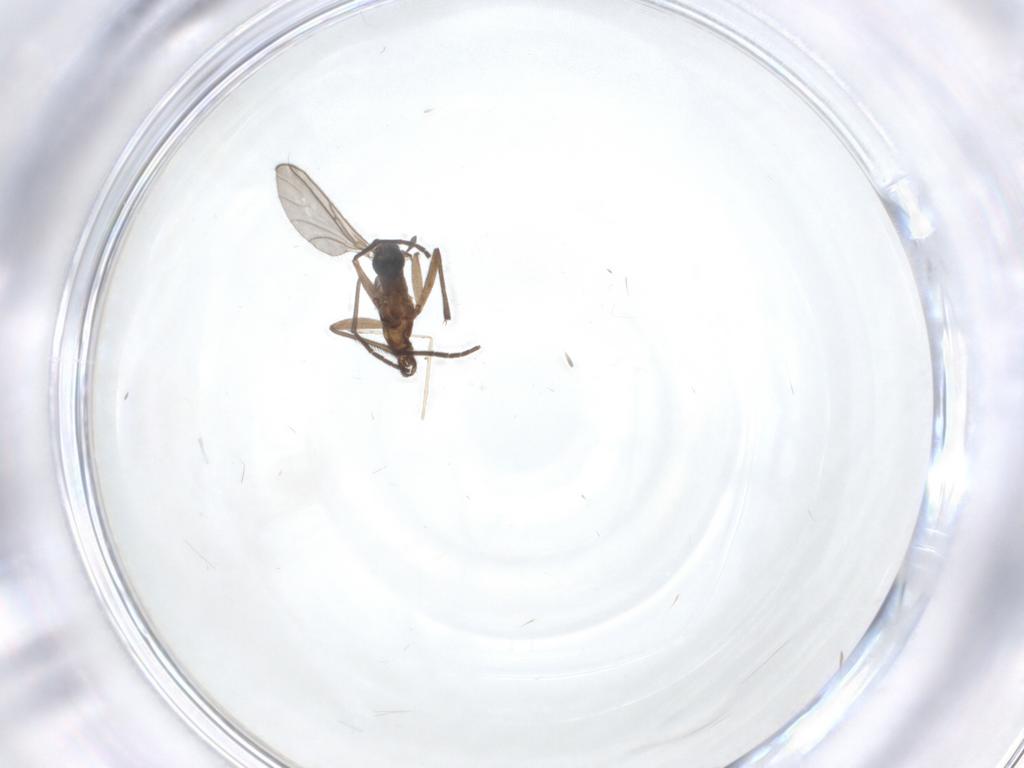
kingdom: Animalia
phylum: Arthropoda
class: Insecta
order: Diptera
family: Sciaridae
